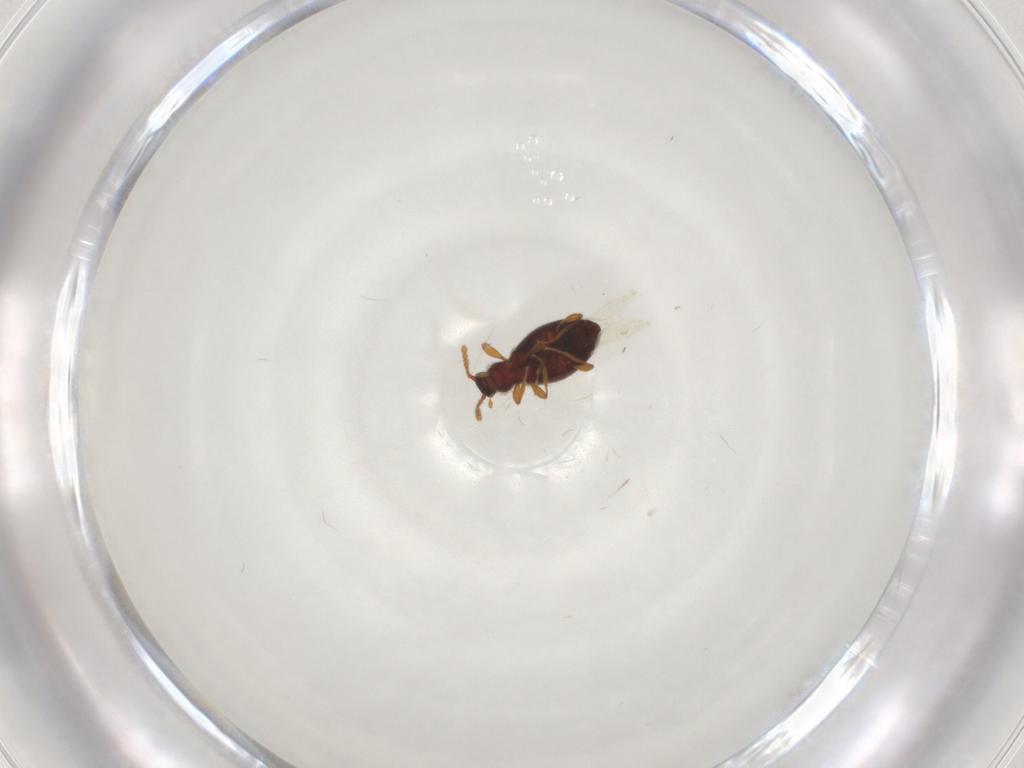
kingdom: Animalia
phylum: Arthropoda
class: Insecta
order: Coleoptera
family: Staphylinidae
